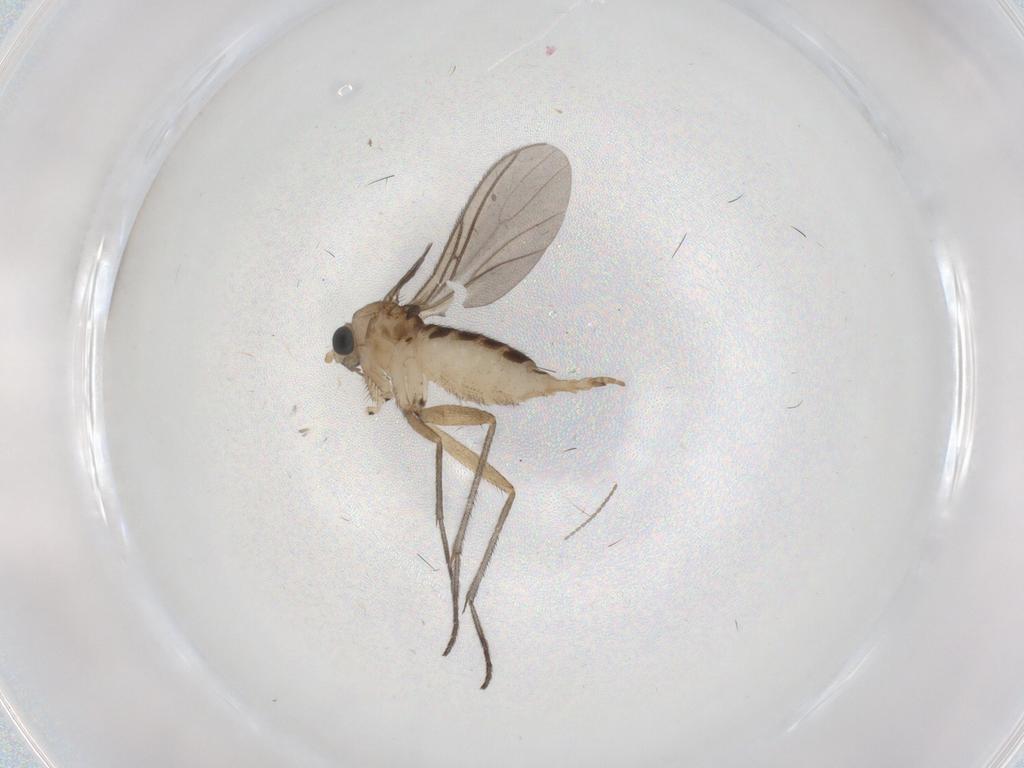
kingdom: Animalia
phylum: Arthropoda
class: Insecta
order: Diptera
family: Sciaridae
